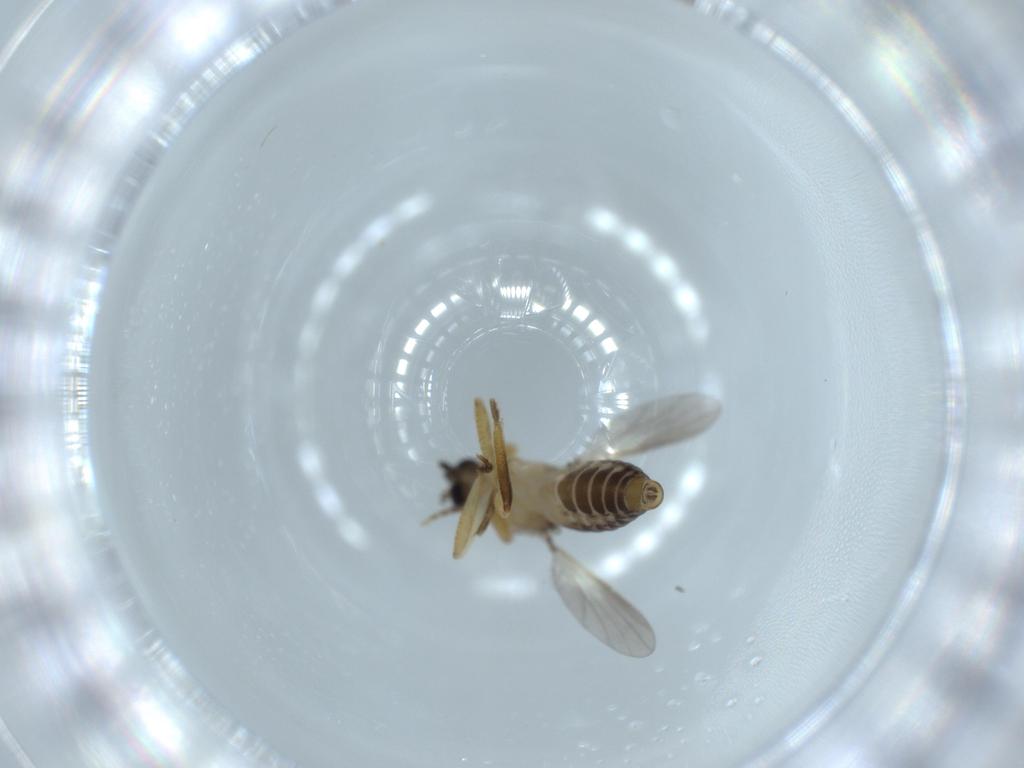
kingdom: Animalia
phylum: Arthropoda
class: Insecta
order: Diptera
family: Ceratopogonidae
